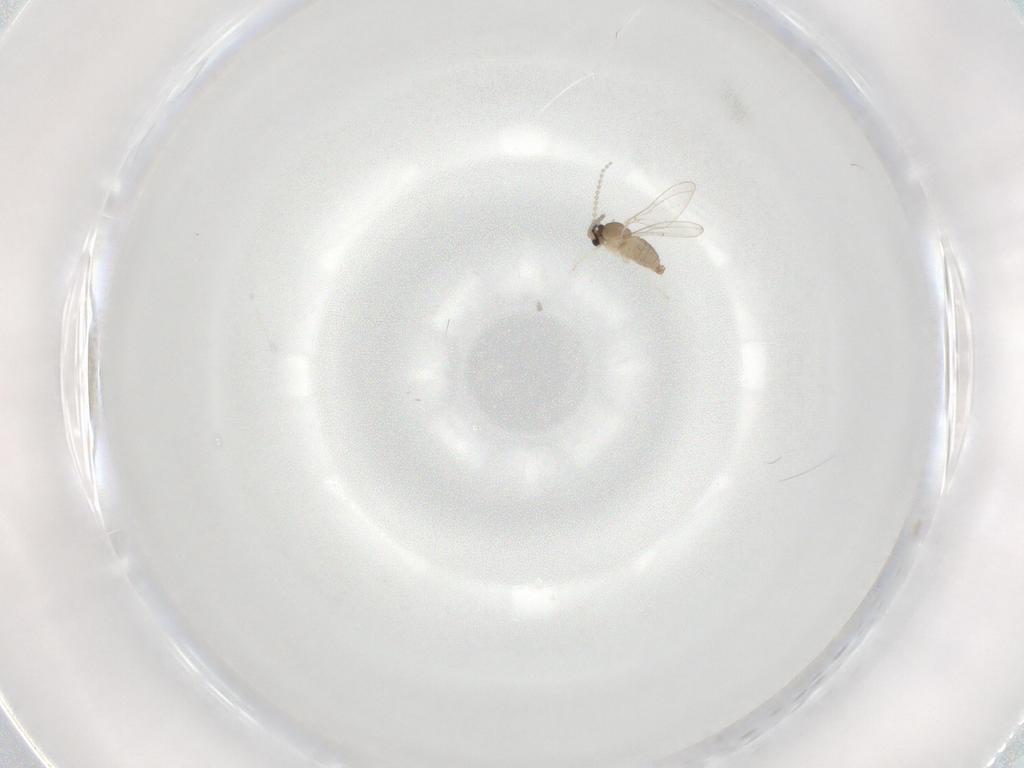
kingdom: Animalia
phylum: Arthropoda
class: Insecta
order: Diptera
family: Cecidomyiidae
